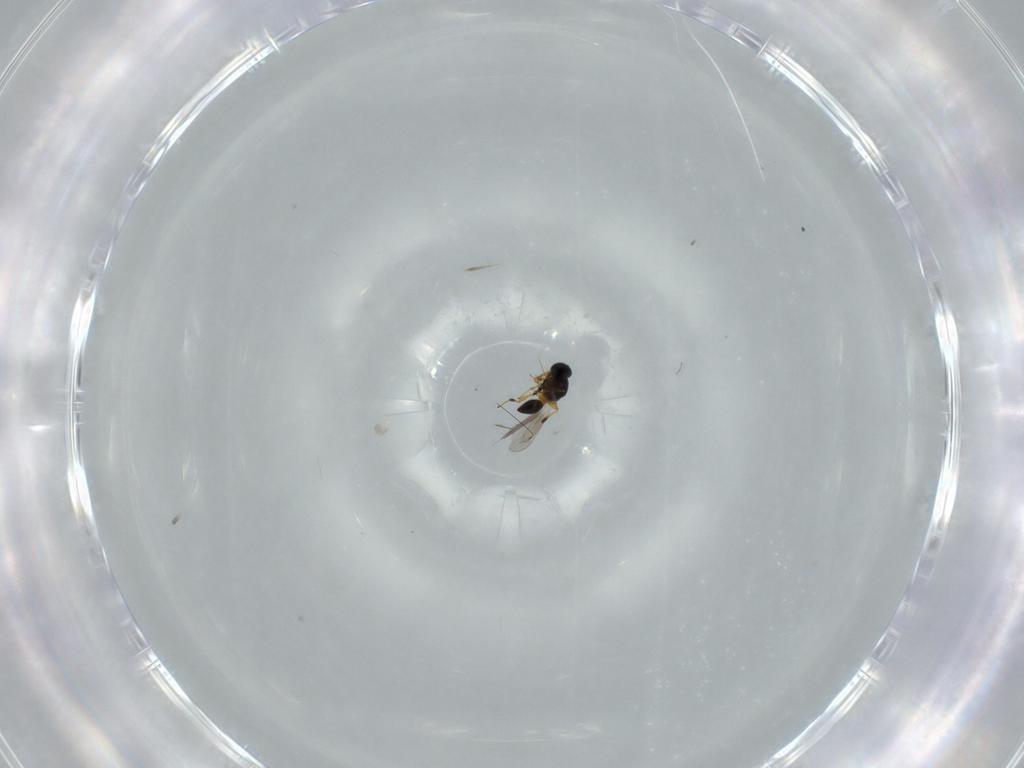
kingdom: Animalia
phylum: Arthropoda
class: Insecta
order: Hymenoptera
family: Platygastridae
